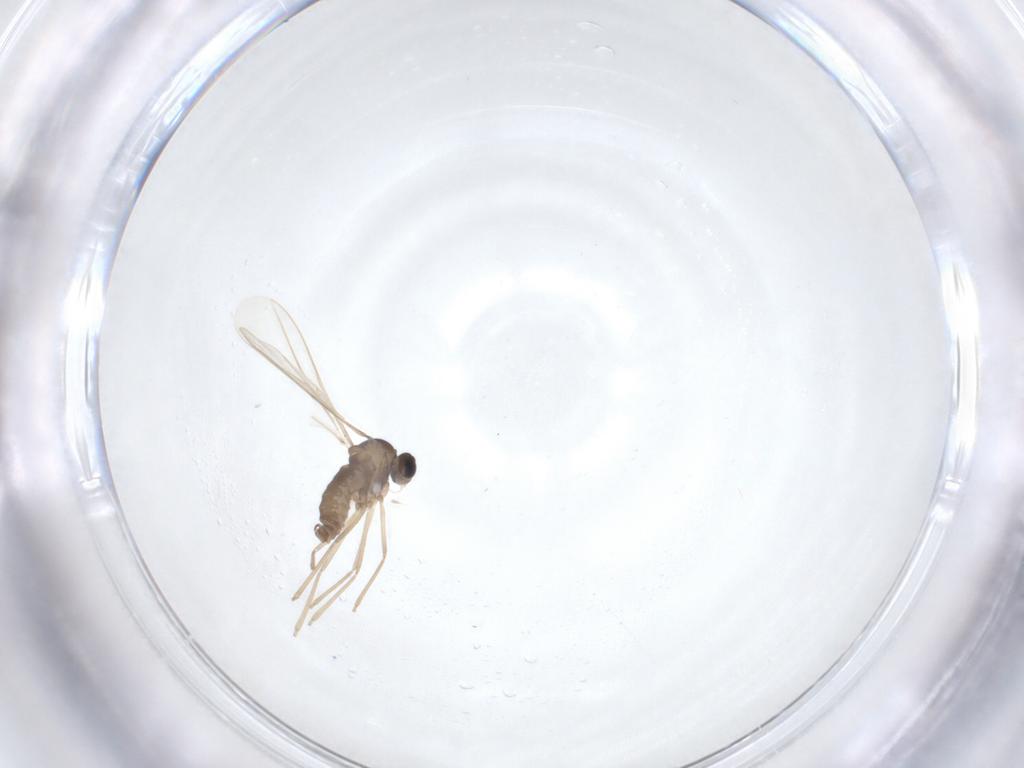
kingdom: Animalia
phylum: Arthropoda
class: Insecta
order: Diptera
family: Cecidomyiidae
